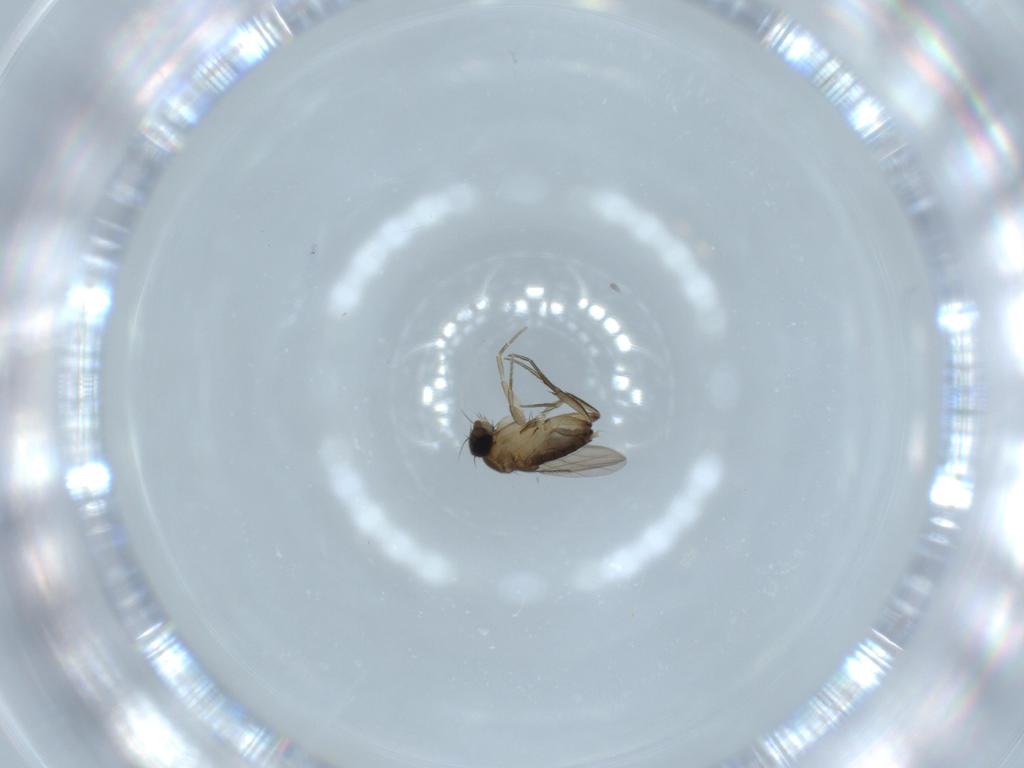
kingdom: Animalia
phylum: Arthropoda
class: Insecta
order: Diptera
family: Phoridae
